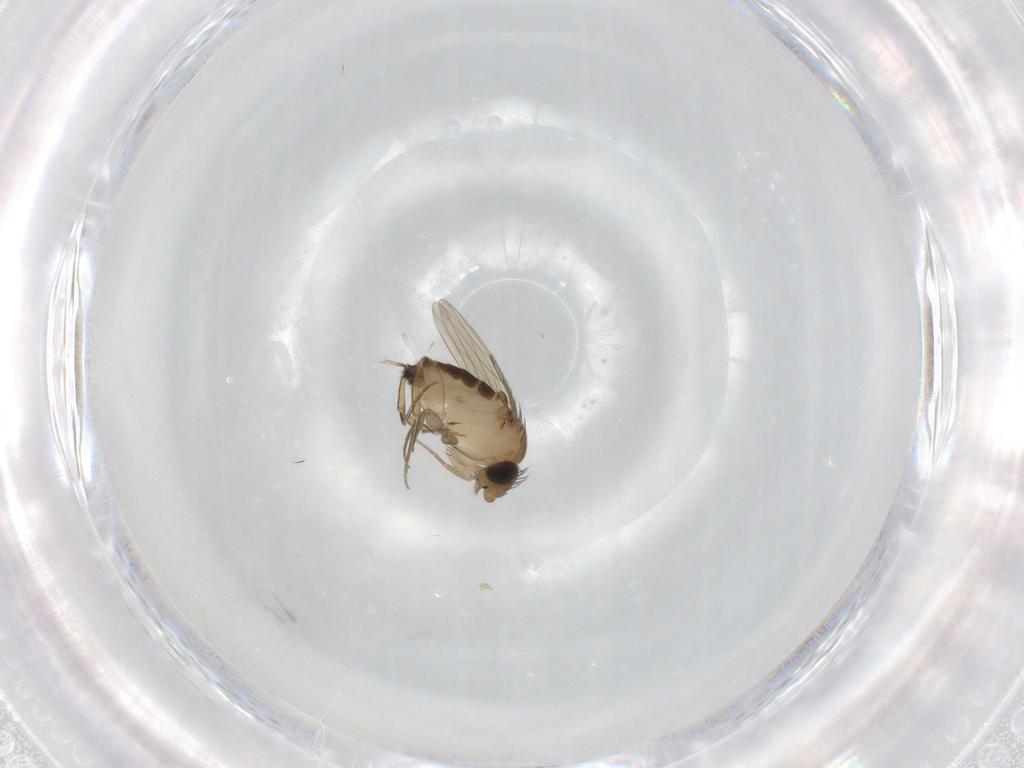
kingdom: Animalia
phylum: Arthropoda
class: Insecta
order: Diptera
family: Phoridae
